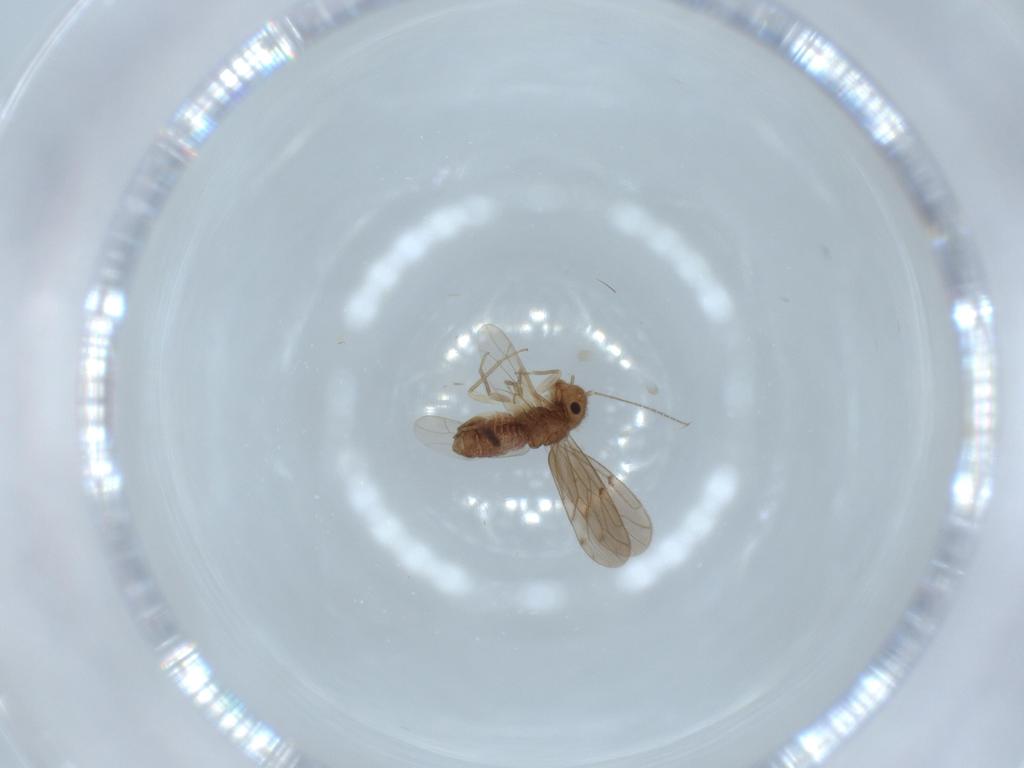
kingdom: Animalia
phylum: Arthropoda
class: Insecta
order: Psocodea
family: Ectopsocidae
